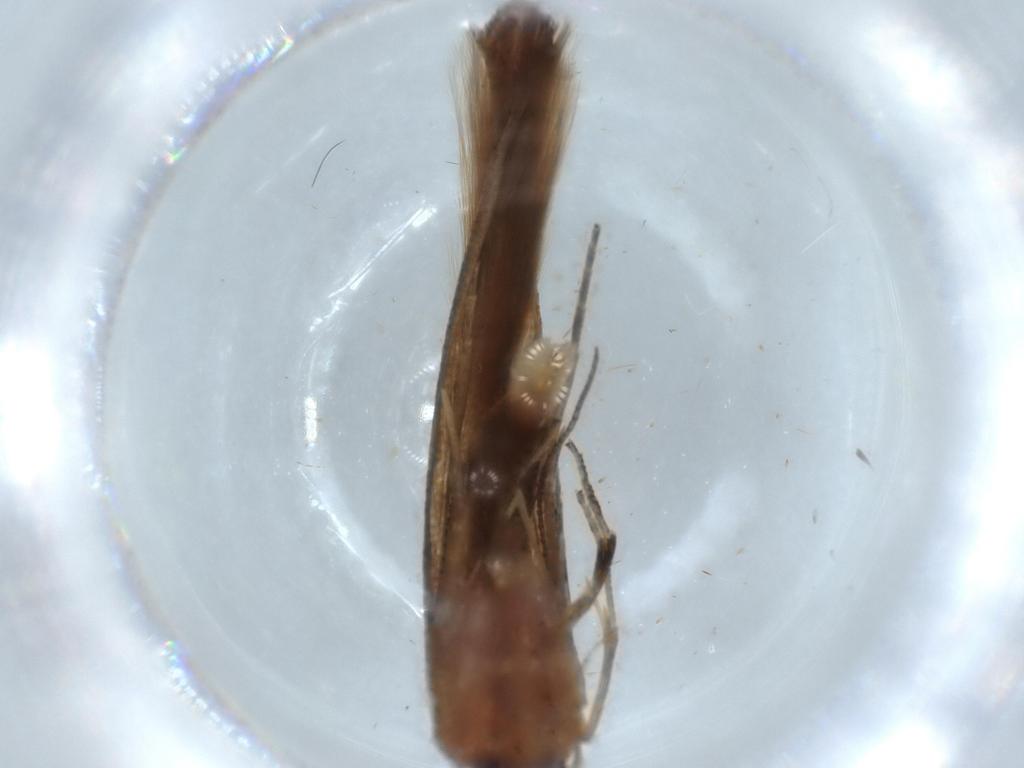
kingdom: Animalia
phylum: Arthropoda
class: Insecta
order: Lepidoptera
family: Stathmopodidae
